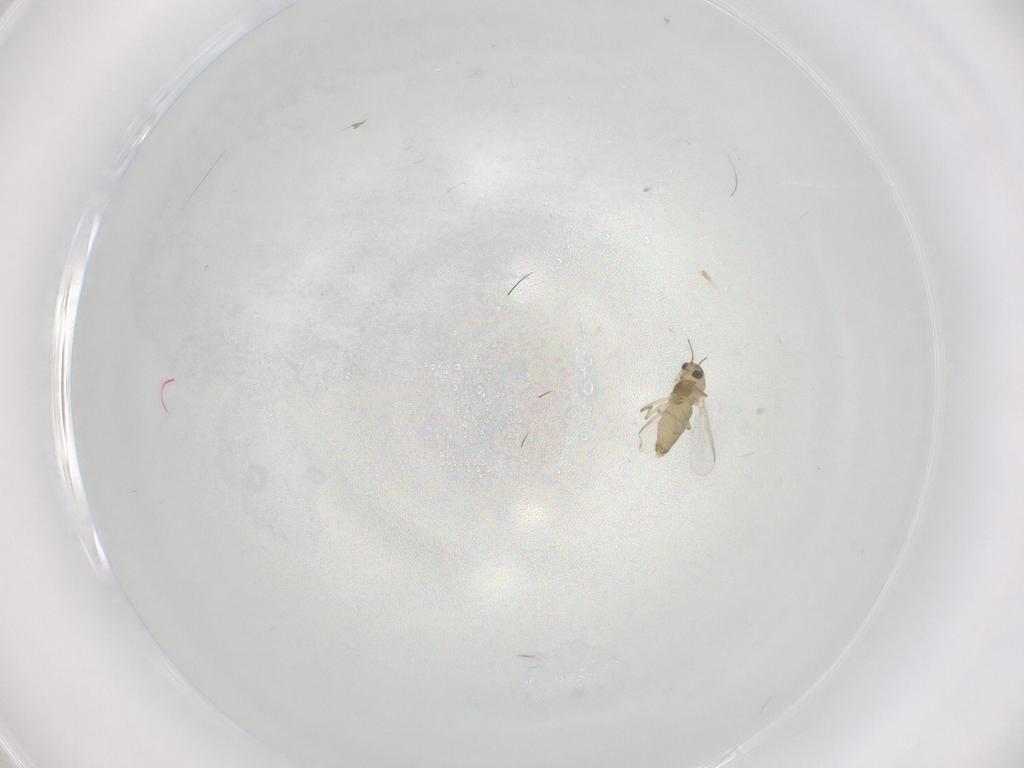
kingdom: Animalia
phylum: Arthropoda
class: Insecta
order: Diptera
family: Chironomidae
